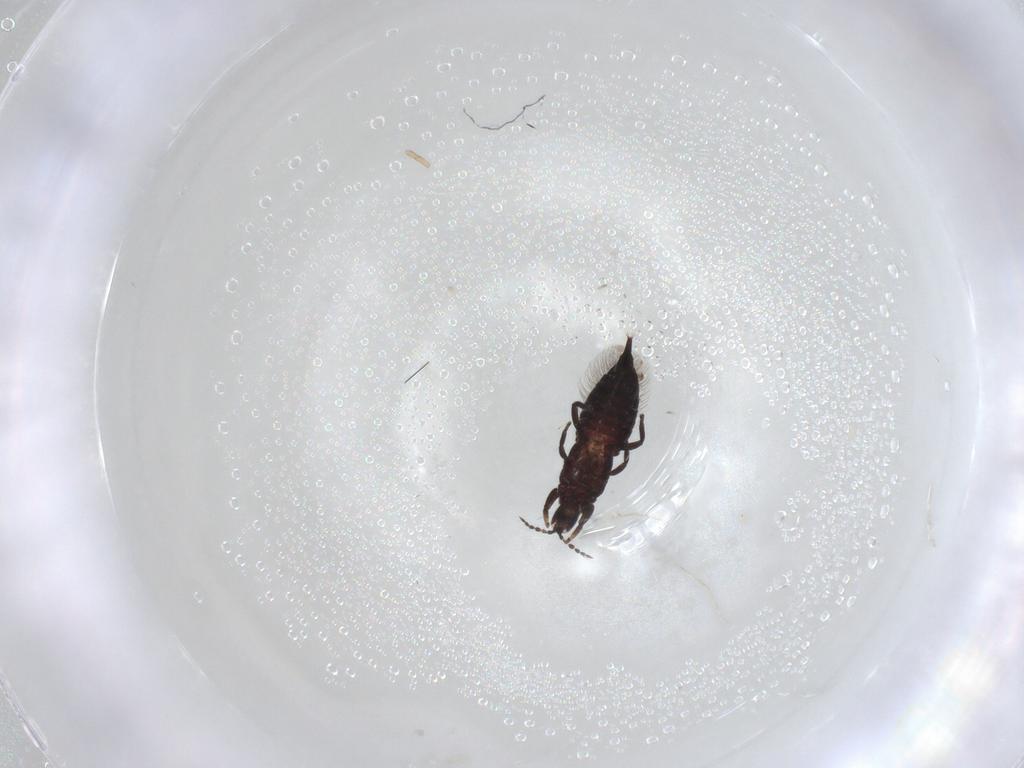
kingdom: Animalia
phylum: Arthropoda
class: Insecta
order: Thysanoptera
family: Phlaeothripidae
